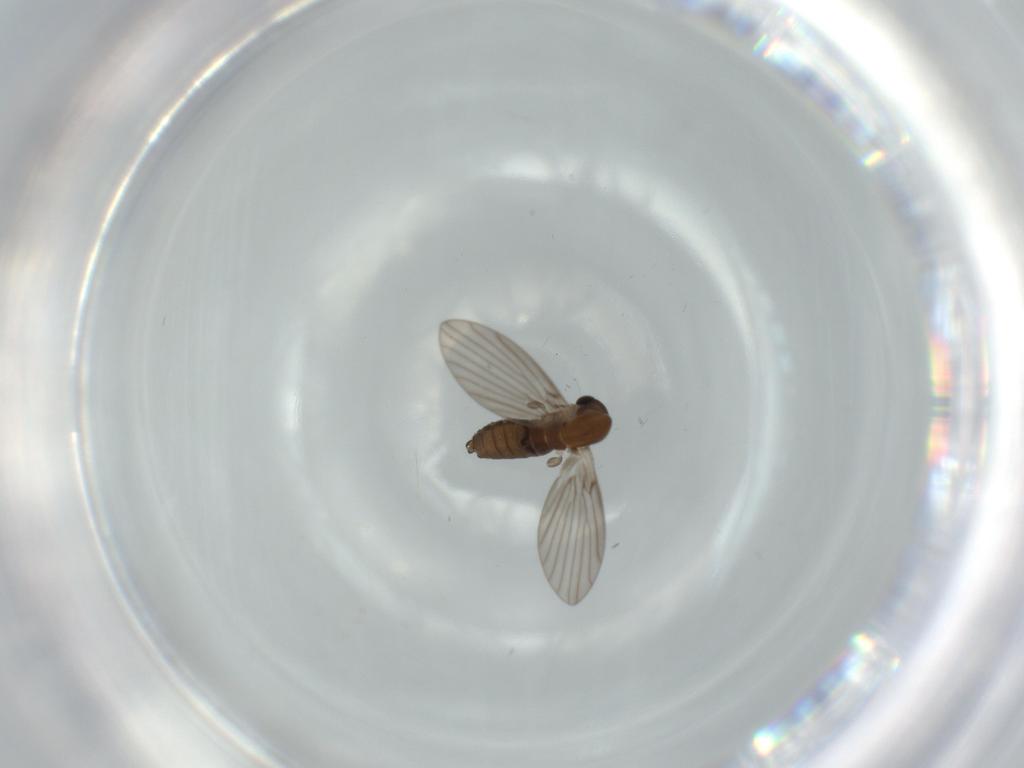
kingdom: Animalia
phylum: Arthropoda
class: Insecta
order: Diptera
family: Psychodidae
